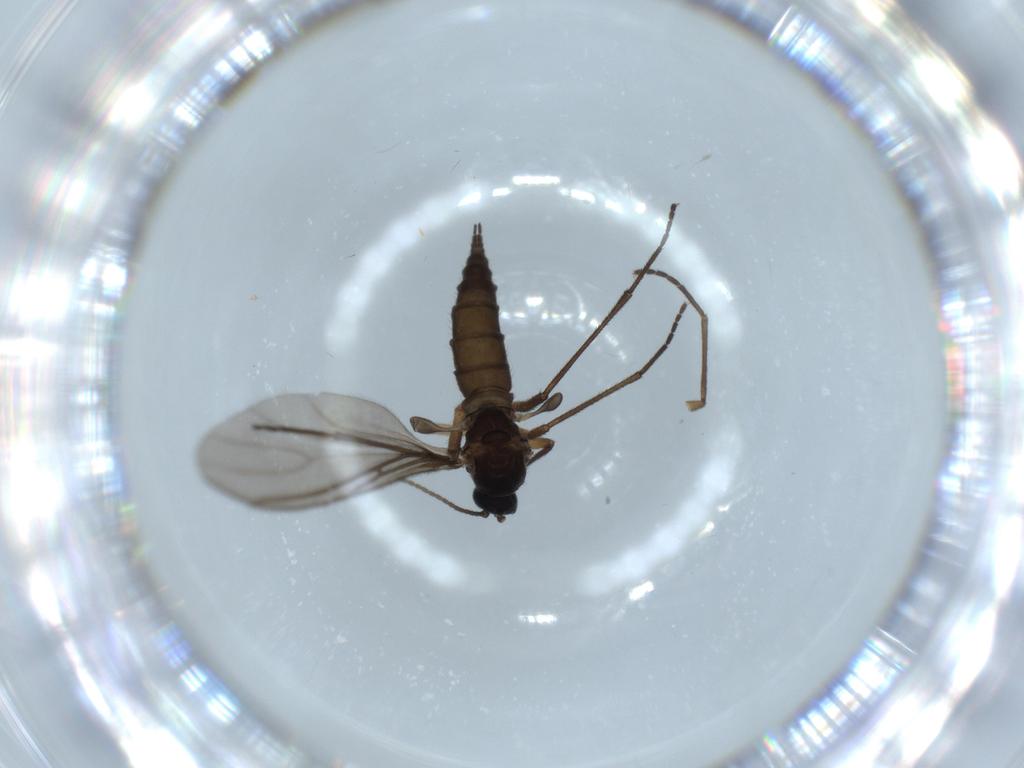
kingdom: Animalia
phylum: Arthropoda
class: Insecta
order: Diptera
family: Sciaridae
